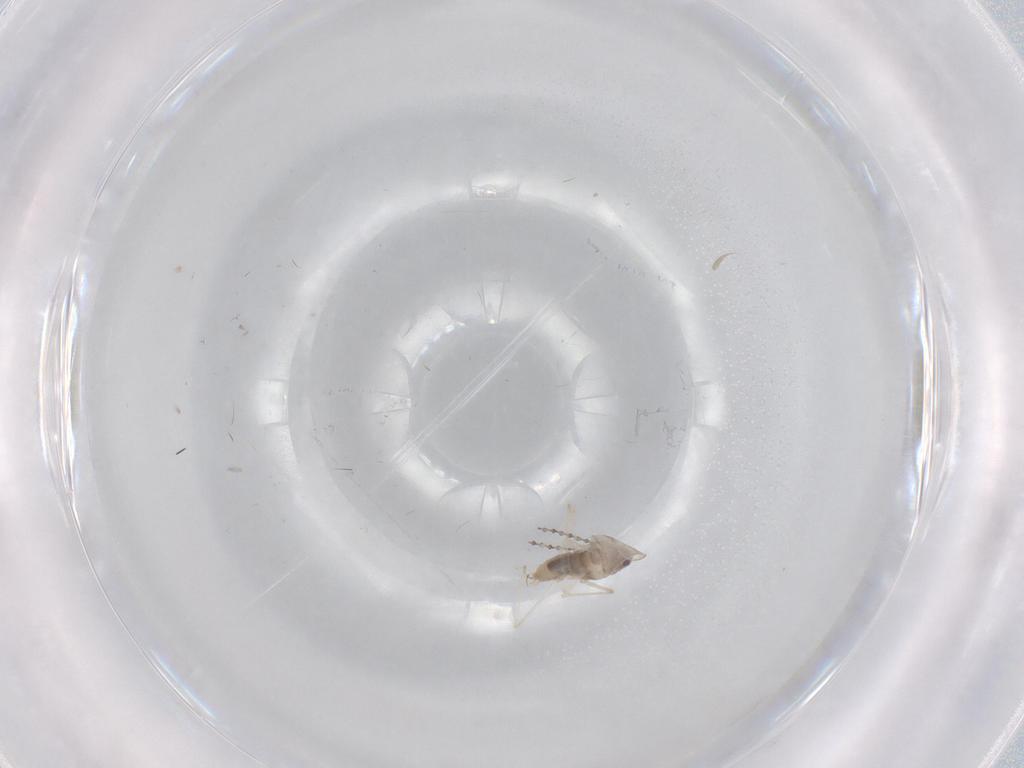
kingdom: Animalia
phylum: Arthropoda
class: Insecta
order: Diptera
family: Cecidomyiidae
